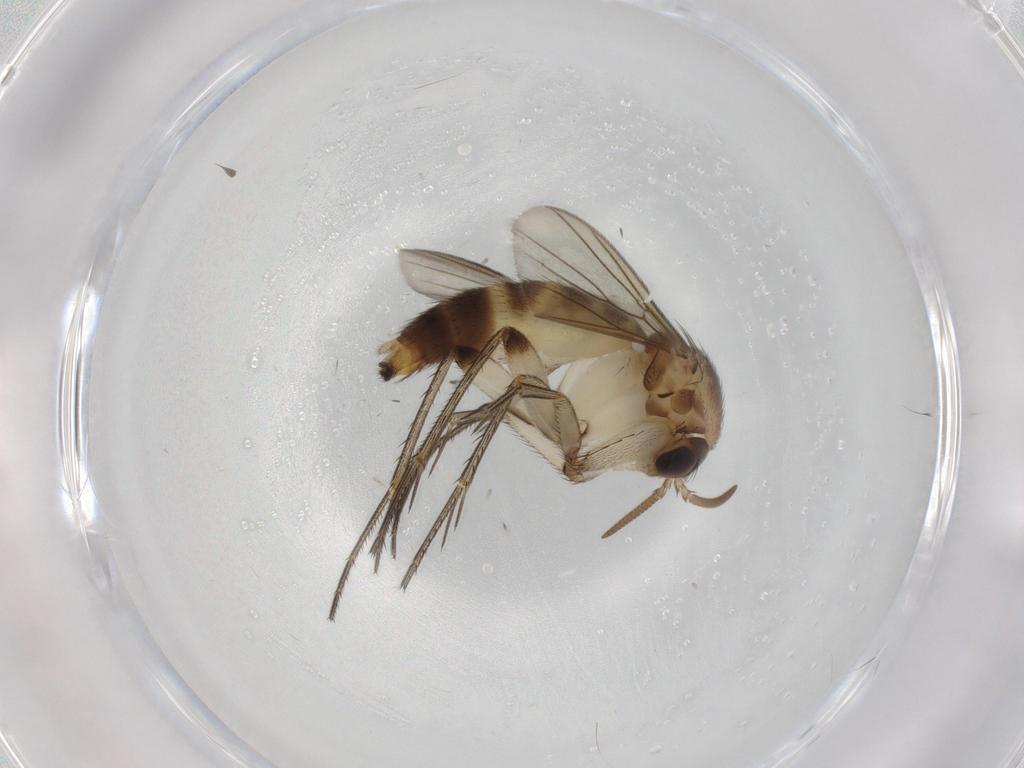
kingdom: Animalia
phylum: Arthropoda
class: Insecta
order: Diptera
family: Mycetophilidae
